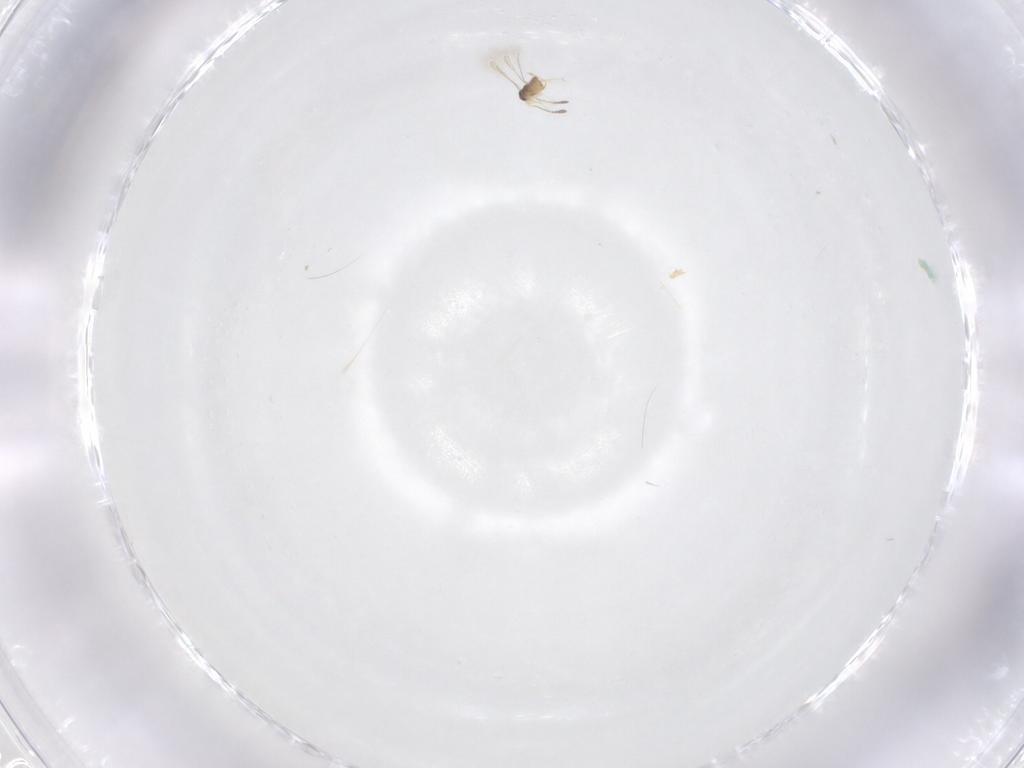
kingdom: Animalia
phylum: Arthropoda
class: Insecta
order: Hymenoptera
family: Mymaridae
